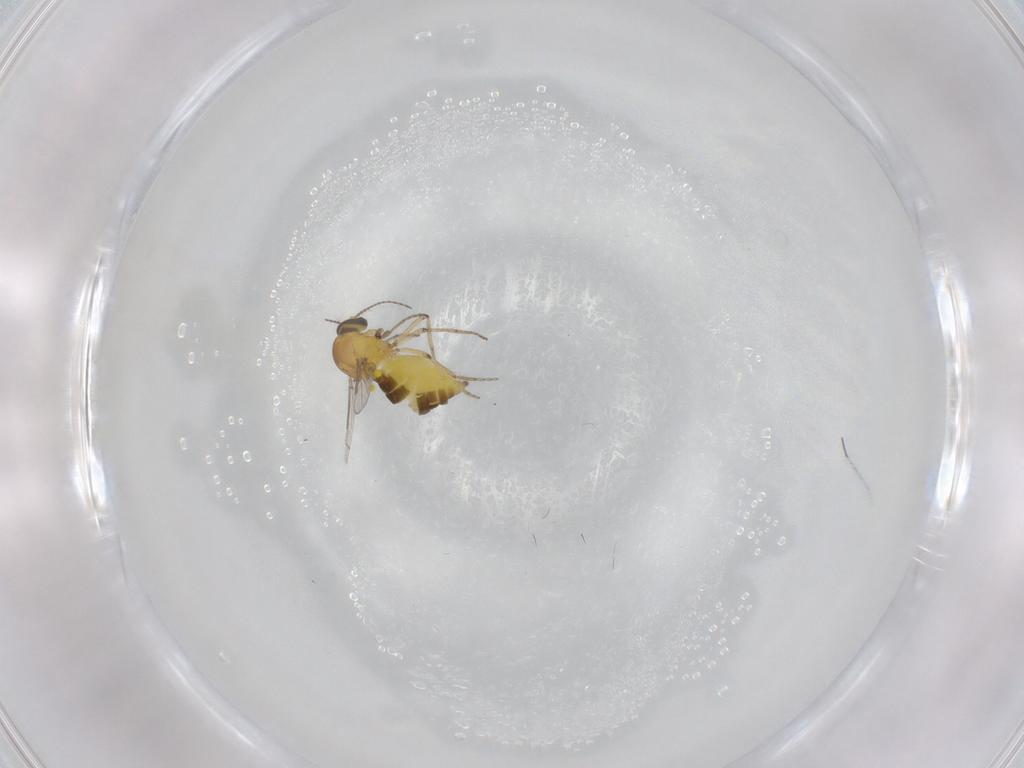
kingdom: Animalia
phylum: Arthropoda
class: Insecta
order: Diptera
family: Ceratopogonidae
